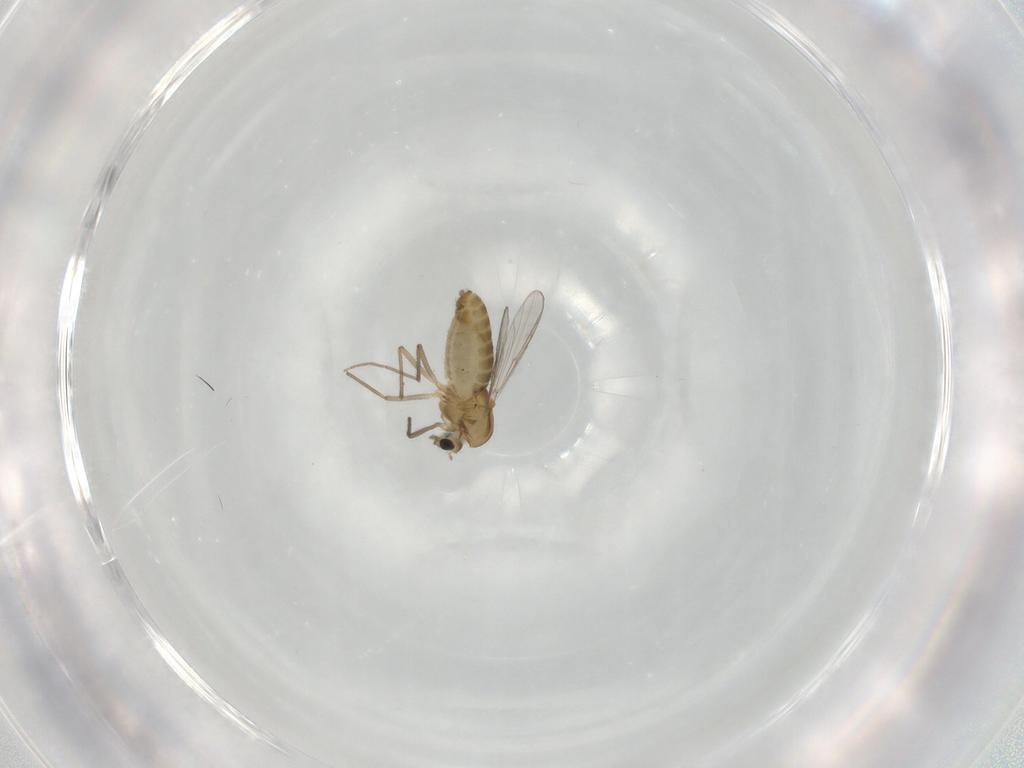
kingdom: Animalia
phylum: Arthropoda
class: Insecta
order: Diptera
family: Chironomidae
